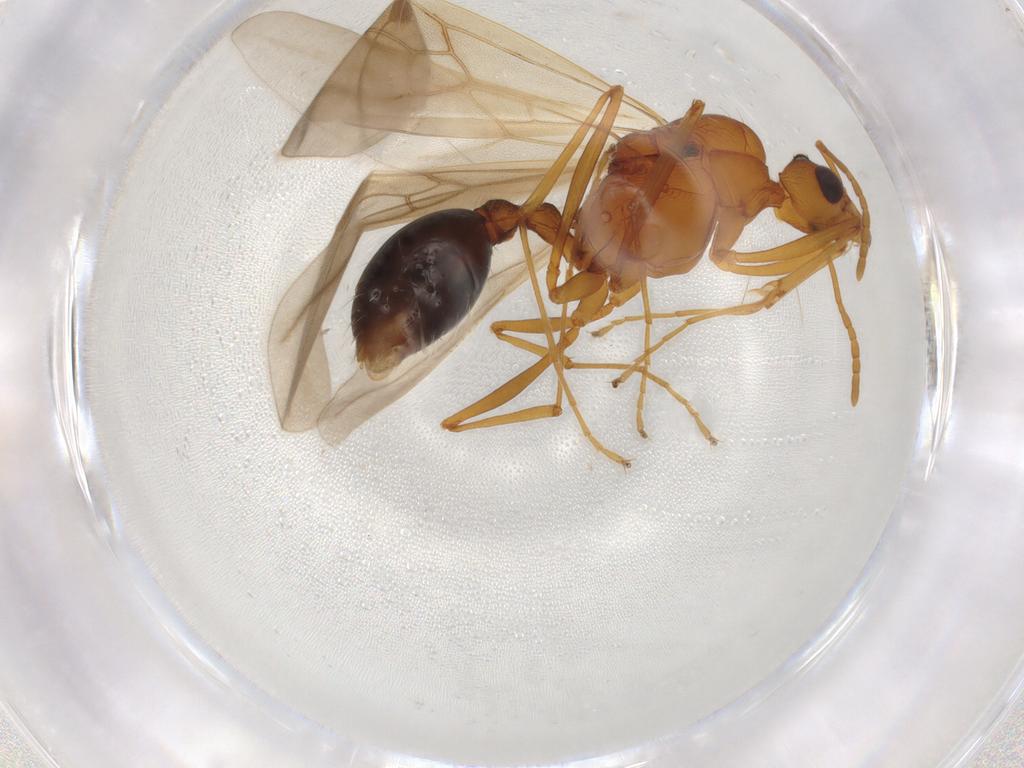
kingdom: Animalia
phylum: Arthropoda
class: Insecta
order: Hymenoptera
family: Formicidae
